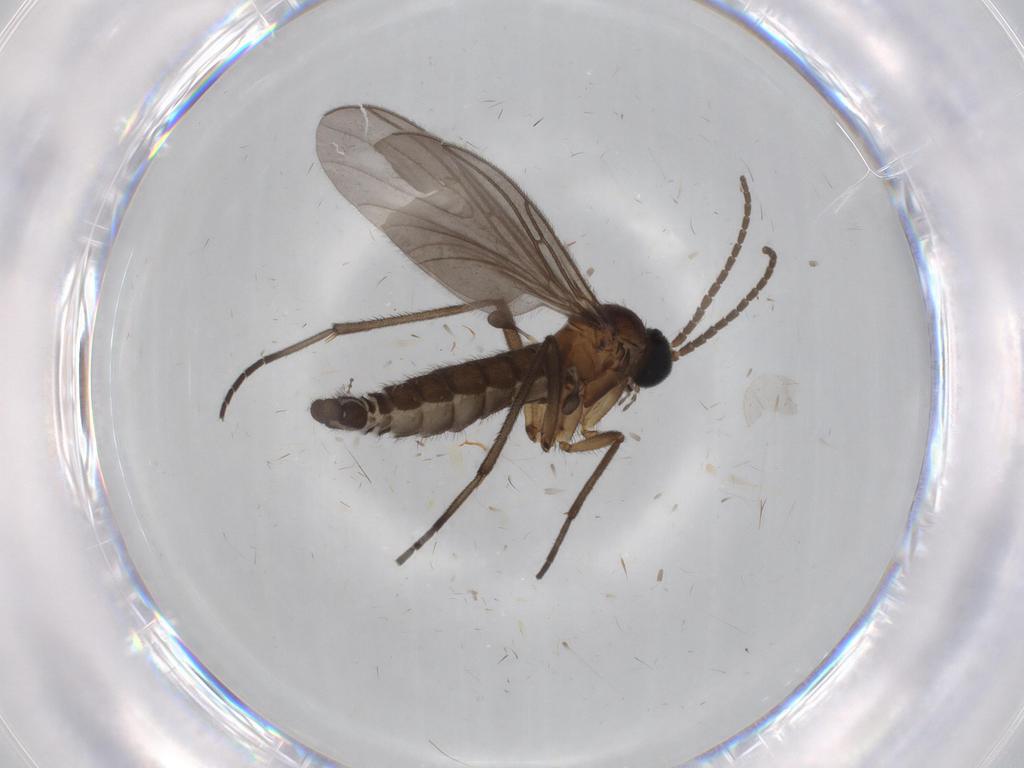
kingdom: Animalia
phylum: Arthropoda
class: Insecta
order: Diptera
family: Sciaridae
